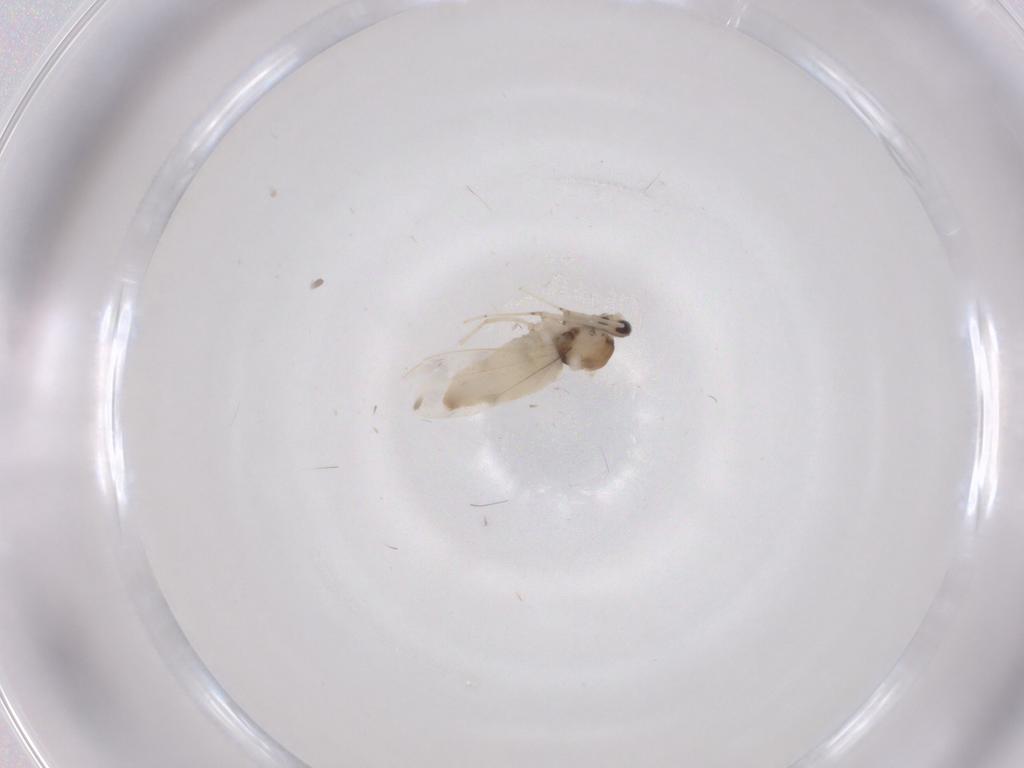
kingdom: Animalia
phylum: Arthropoda
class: Insecta
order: Diptera
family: Cecidomyiidae
